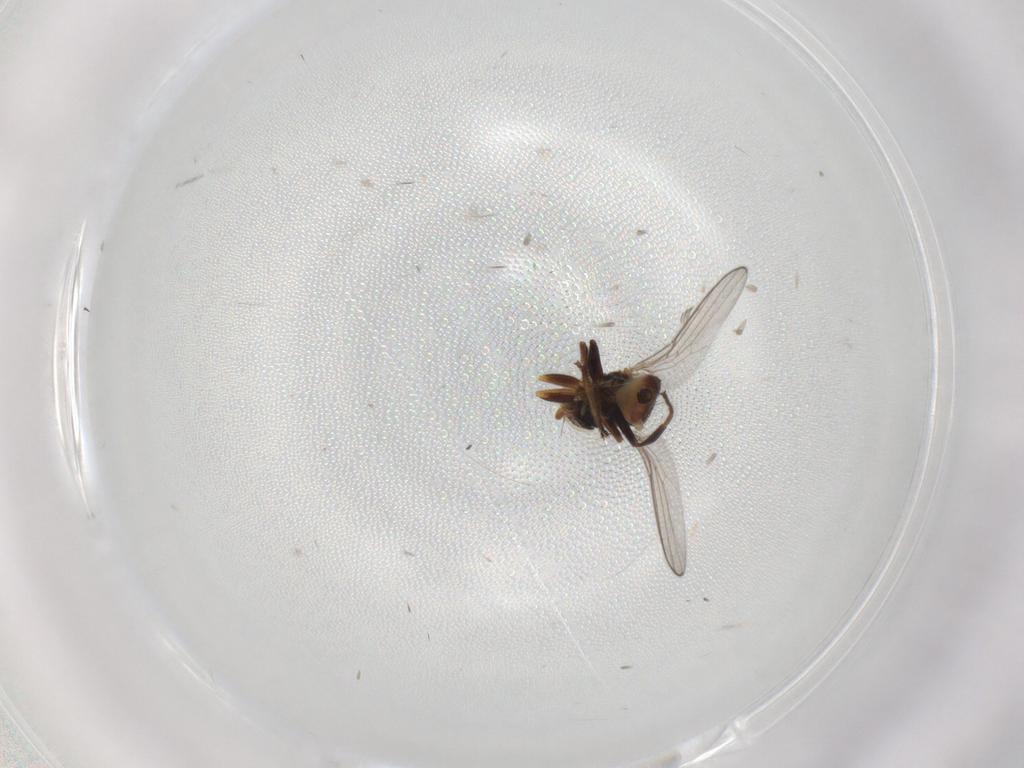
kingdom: Animalia
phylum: Arthropoda
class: Insecta
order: Diptera
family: Chloropidae
